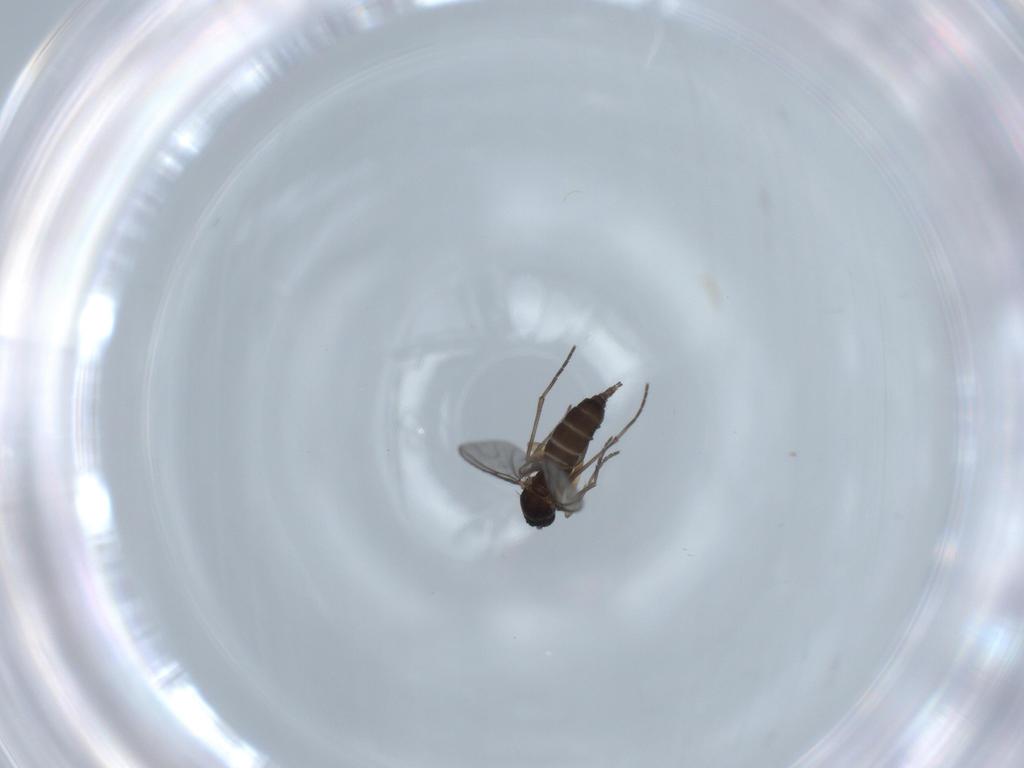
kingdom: Animalia
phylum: Arthropoda
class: Insecta
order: Diptera
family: Sciaridae
